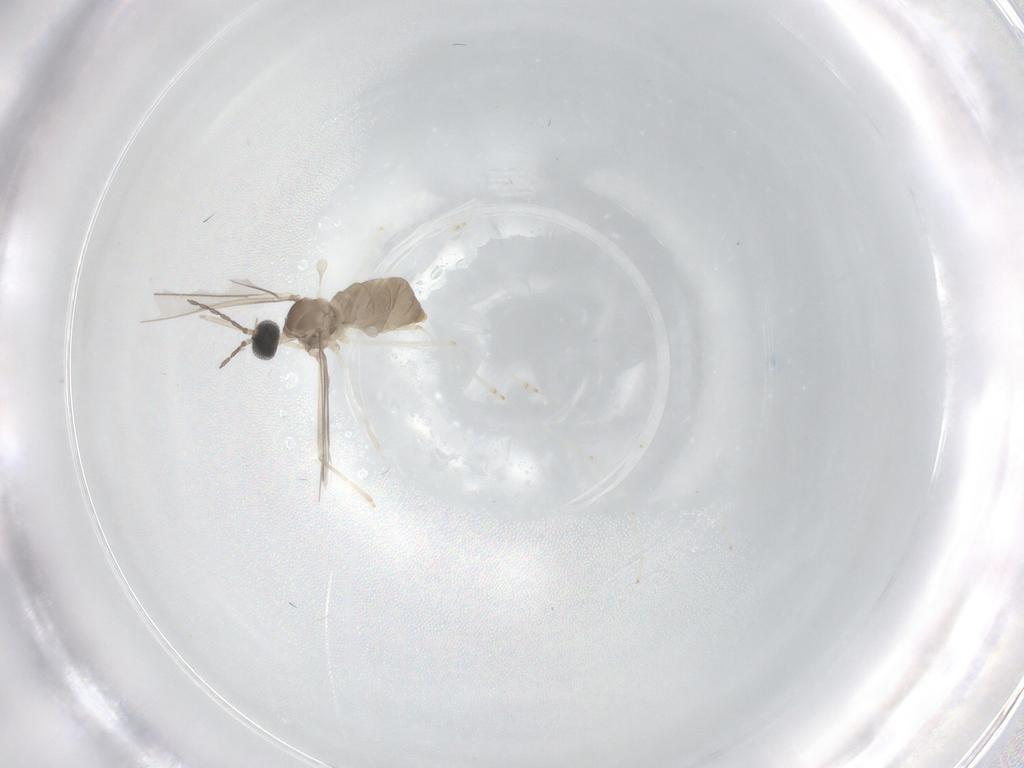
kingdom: Animalia
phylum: Arthropoda
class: Insecta
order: Diptera
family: Cecidomyiidae
